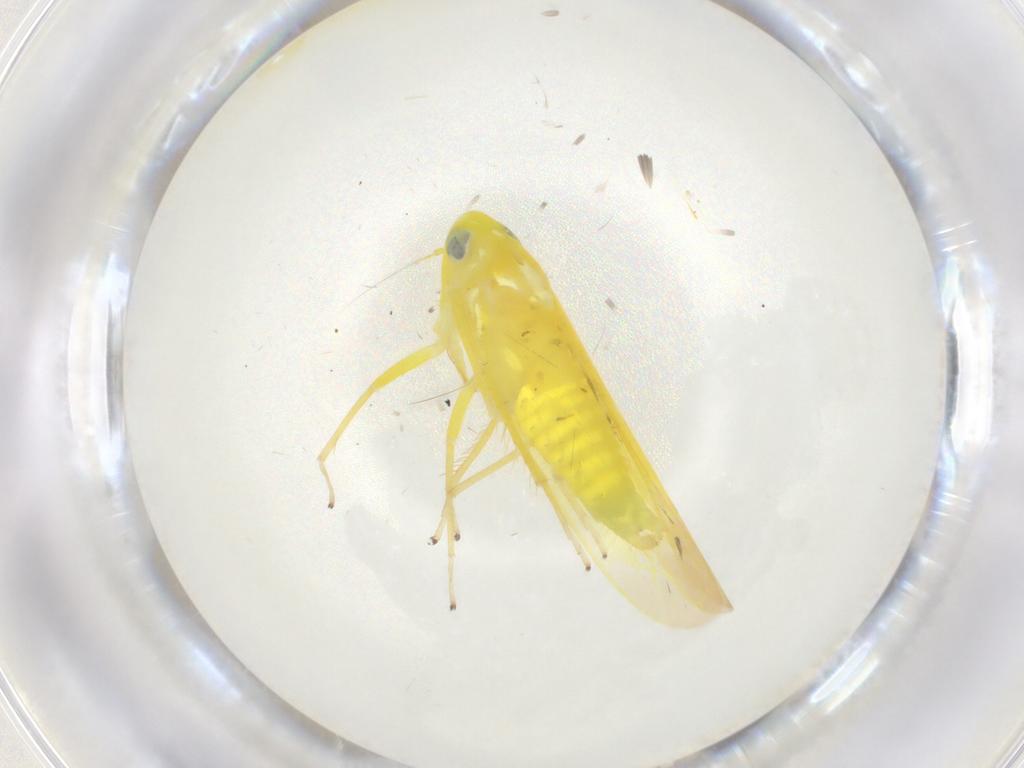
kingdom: Animalia
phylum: Arthropoda
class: Insecta
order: Hemiptera
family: Cicadellidae
